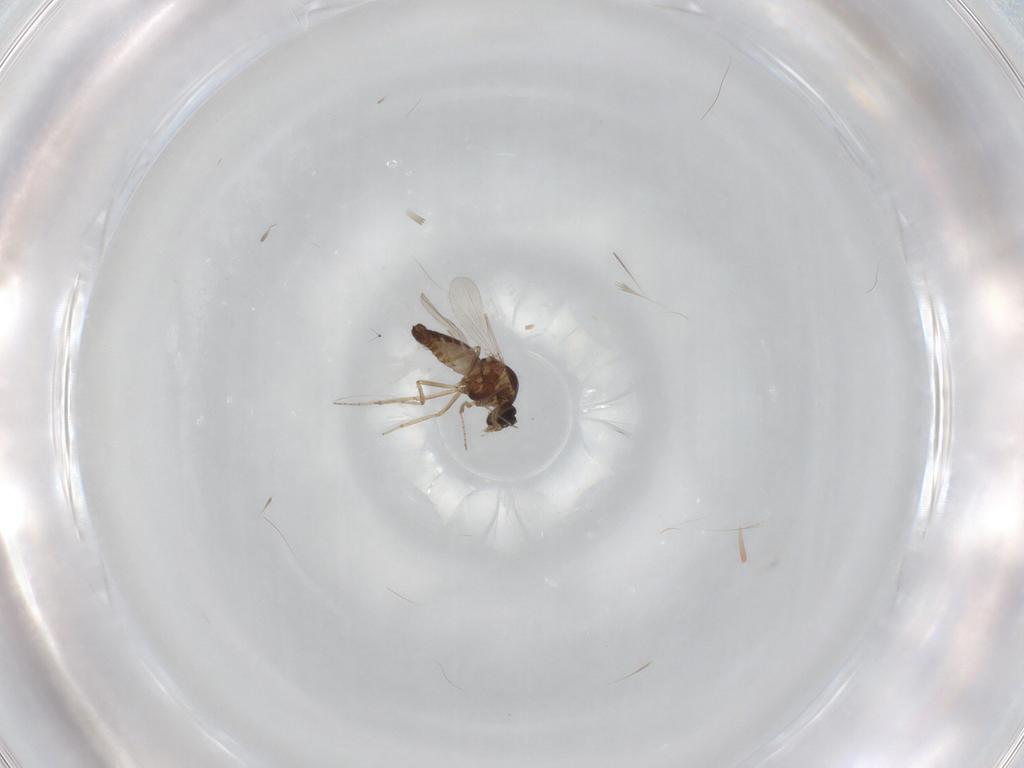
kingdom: Animalia
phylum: Arthropoda
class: Insecta
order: Diptera
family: Ceratopogonidae
